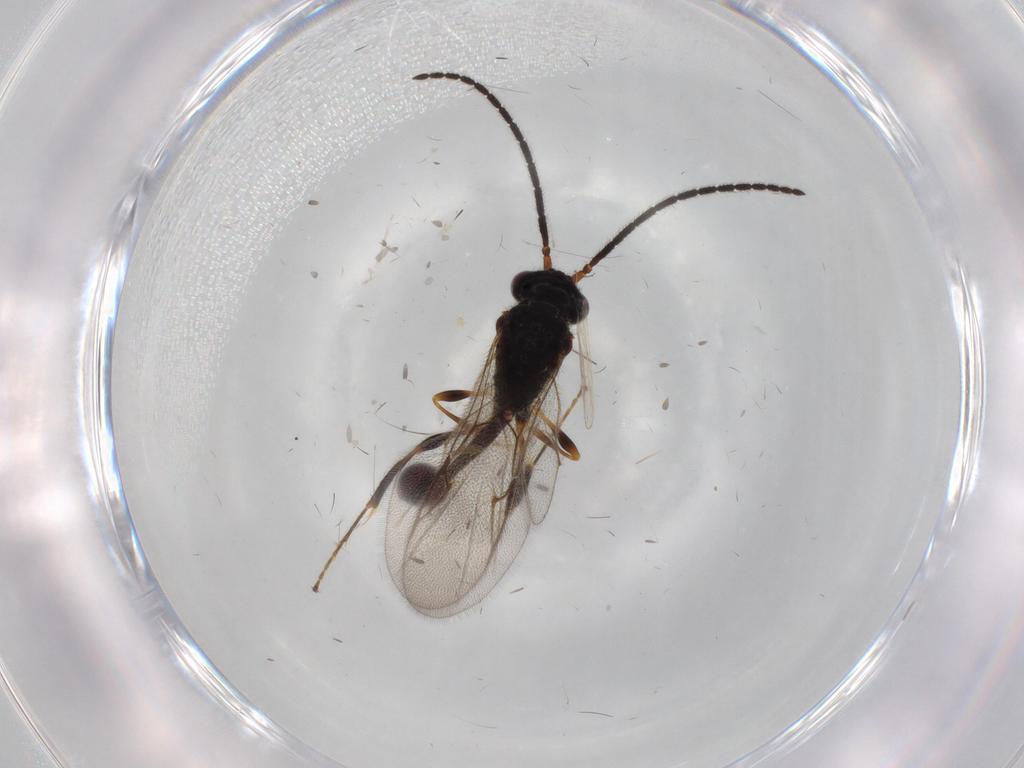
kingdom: Animalia
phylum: Arthropoda
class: Insecta
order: Hymenoptera
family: Diapriidae
